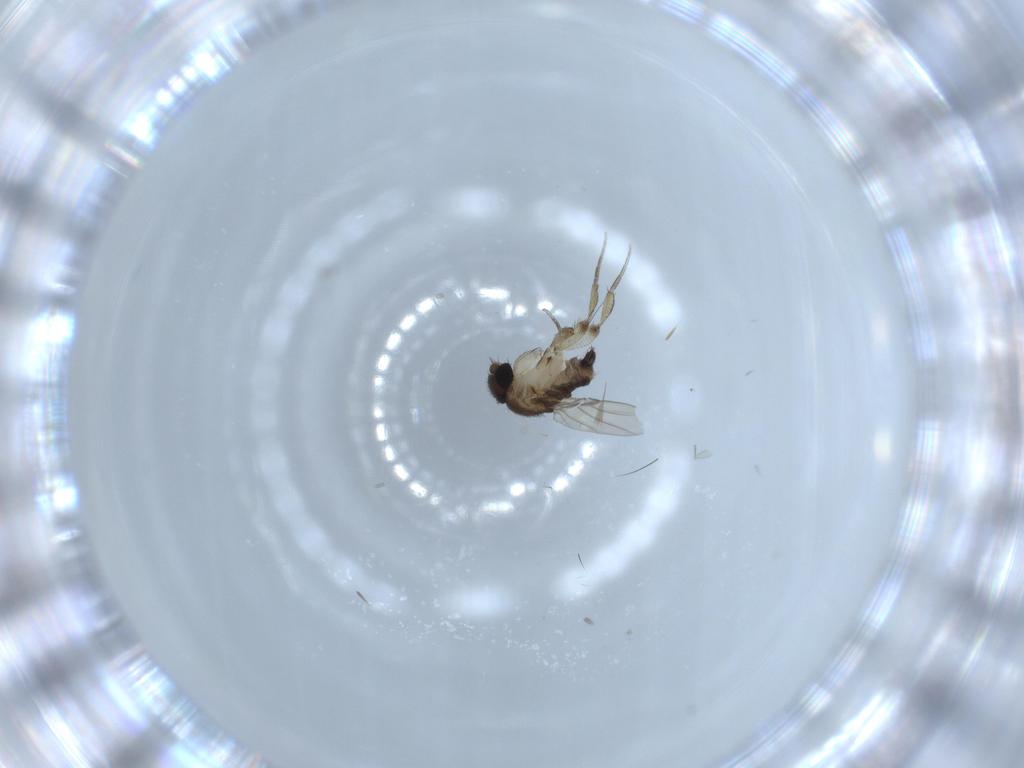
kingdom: Animalia
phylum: Arthropoda
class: Insecta
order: Diptera
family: Phoridae
